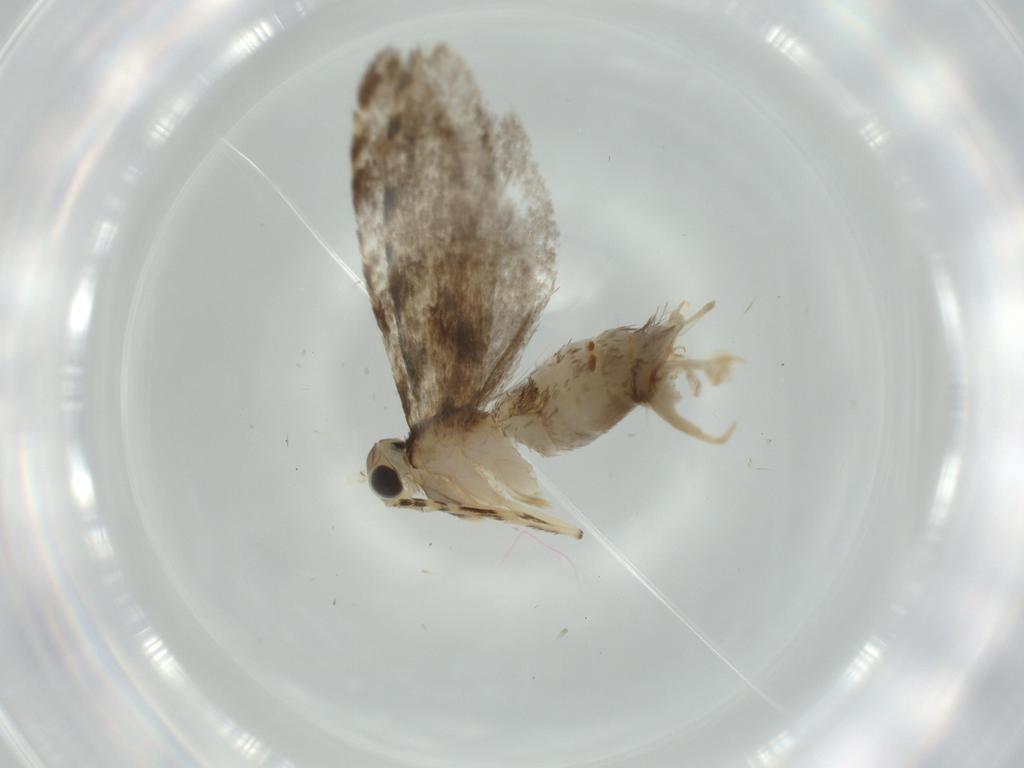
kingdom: Animalia
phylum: Arthropoda
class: Insecta
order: Lepidoptera
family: Tineidae
